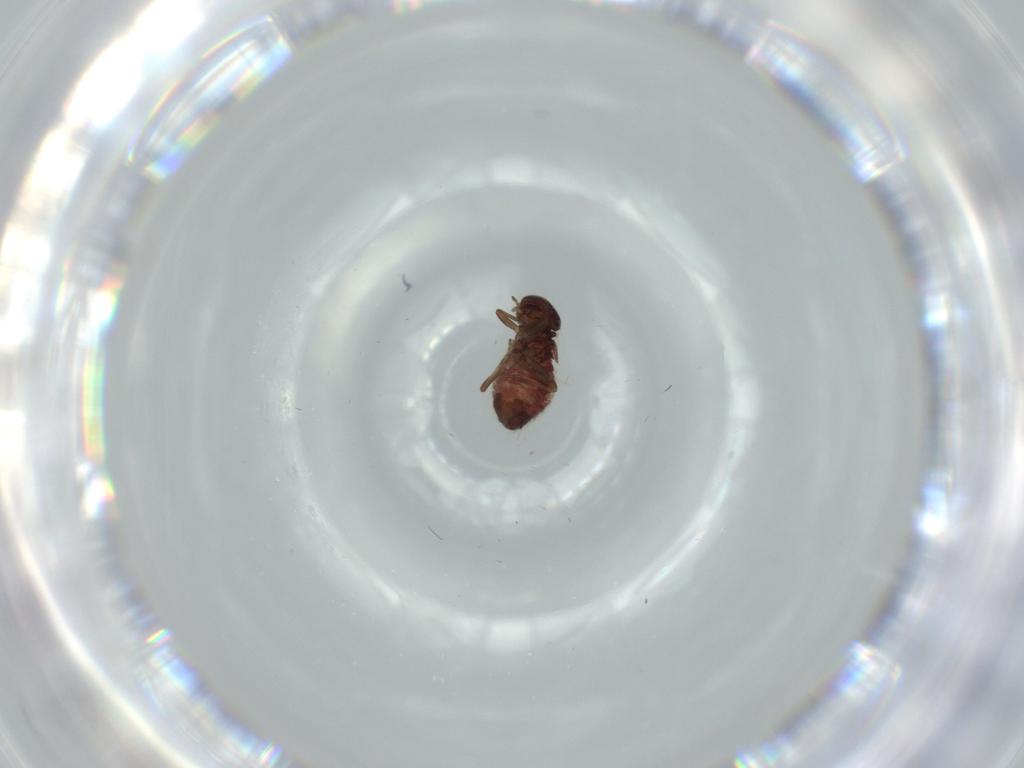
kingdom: Animalia
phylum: Arthropoda
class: Insecta
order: Psocodea
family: Archipsocidae
